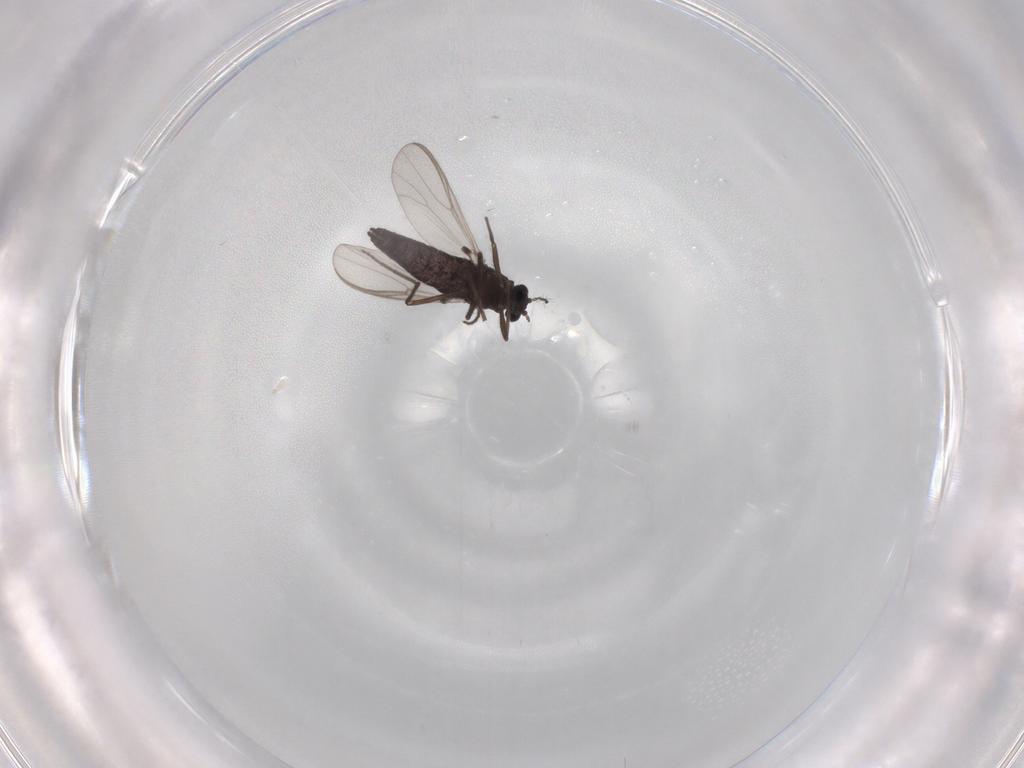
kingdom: Animalia
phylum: Arthropoda
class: Insecta
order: Diptera
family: Chironomidae
